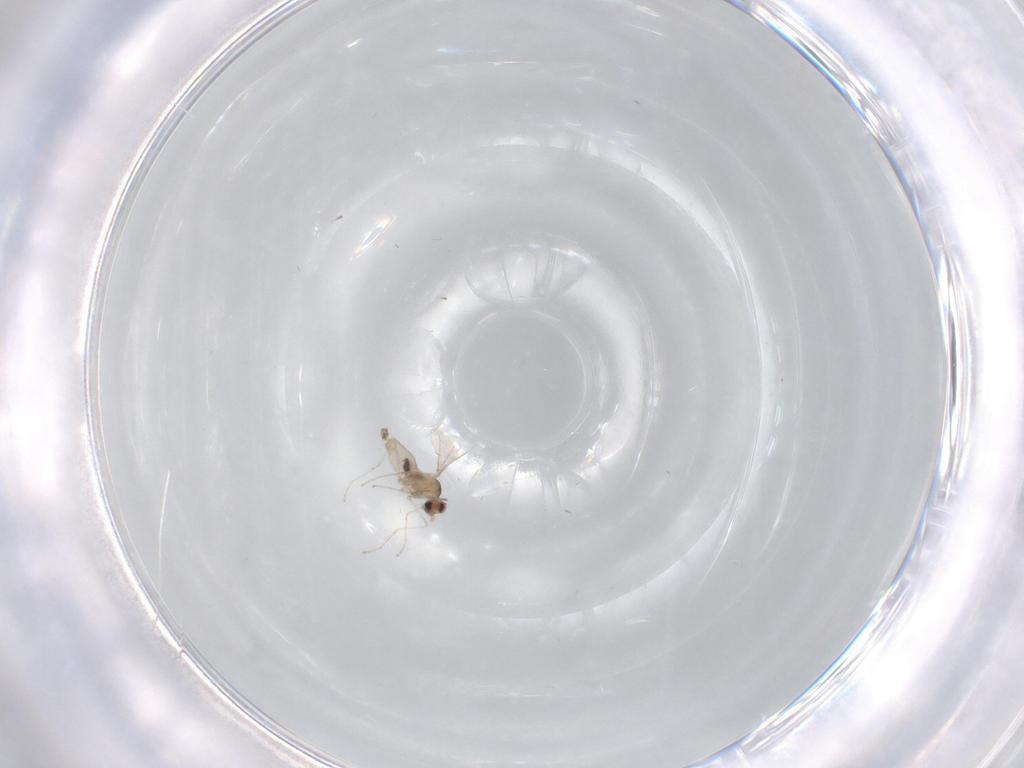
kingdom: Animalia
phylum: Arthropoda
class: Insecta
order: Diptera
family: Cecidomyiidae
